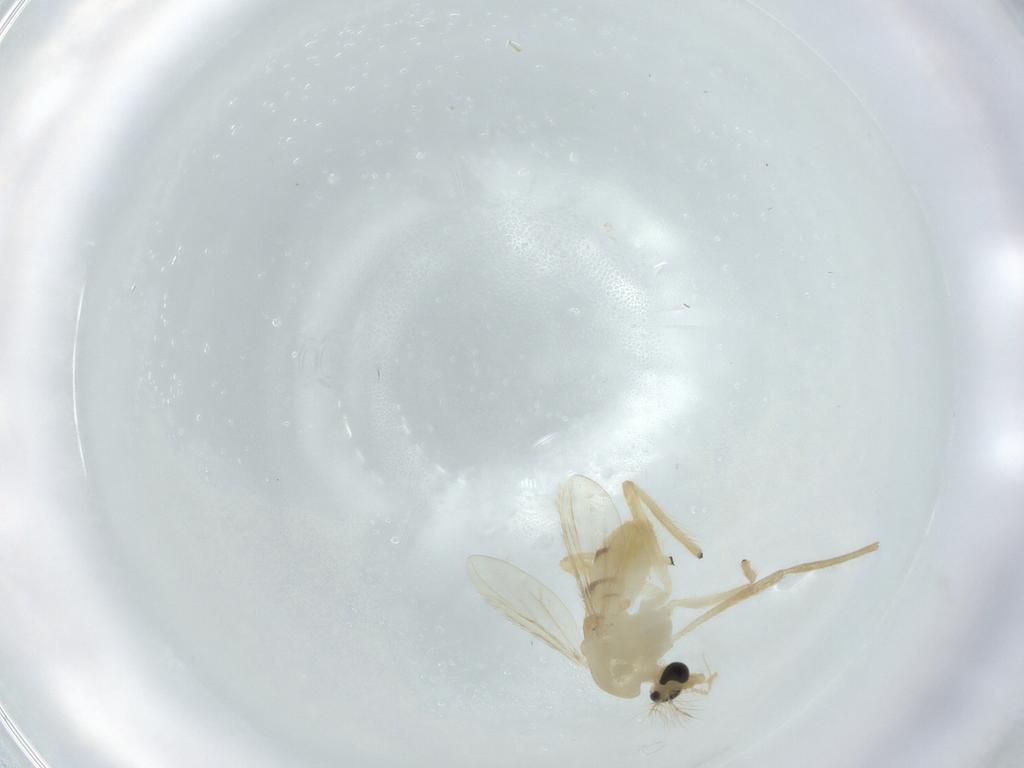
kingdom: Animalia
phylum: Arthropoda
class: Insecta
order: Diptera
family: Chironomidae
